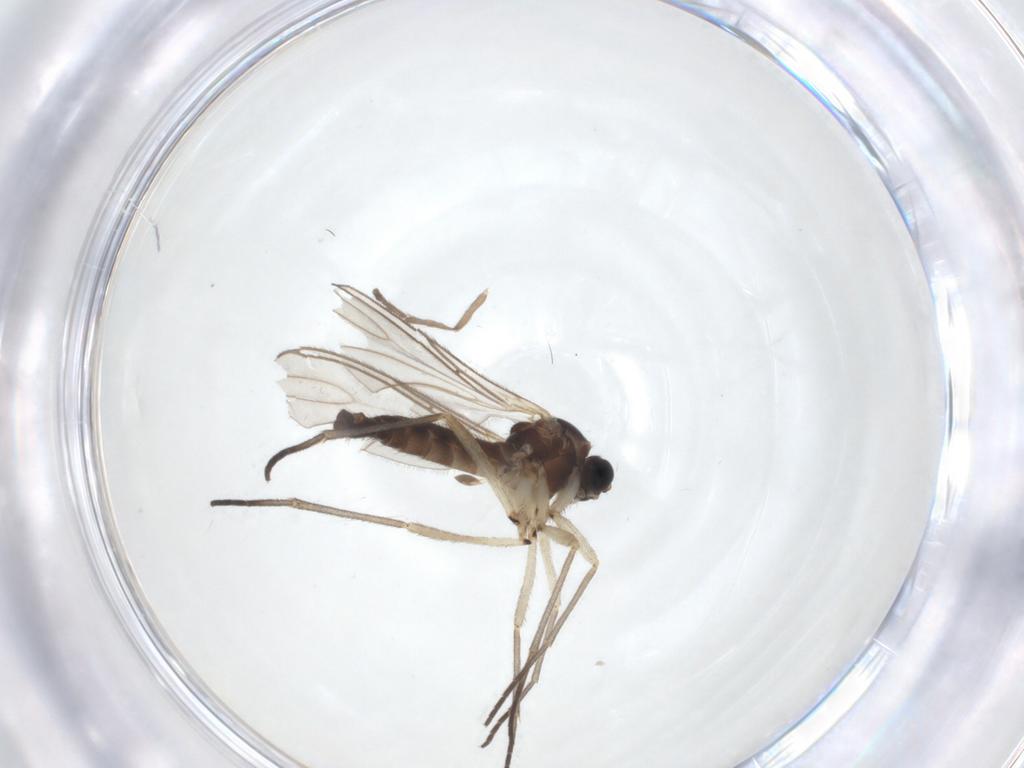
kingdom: Animalia
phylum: Arthropoda
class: Insecta
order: Diptera
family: Sciaridae
